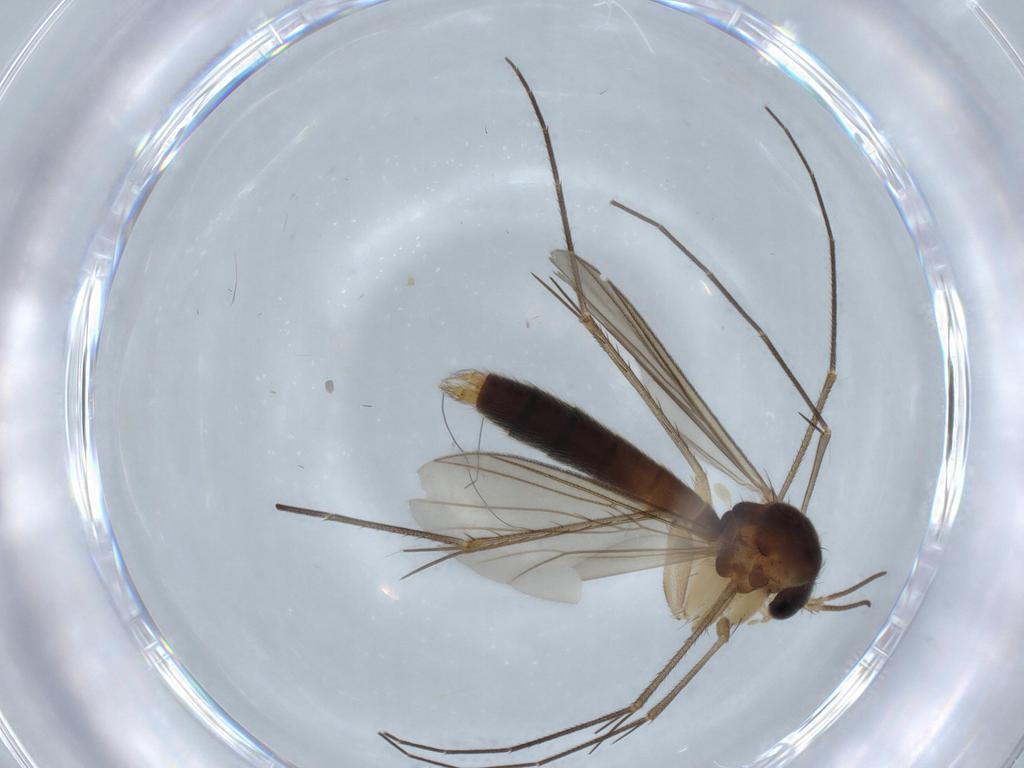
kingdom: Animalia
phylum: Arthropoda
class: Insecta
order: Diptera
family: Mycetophilidae
